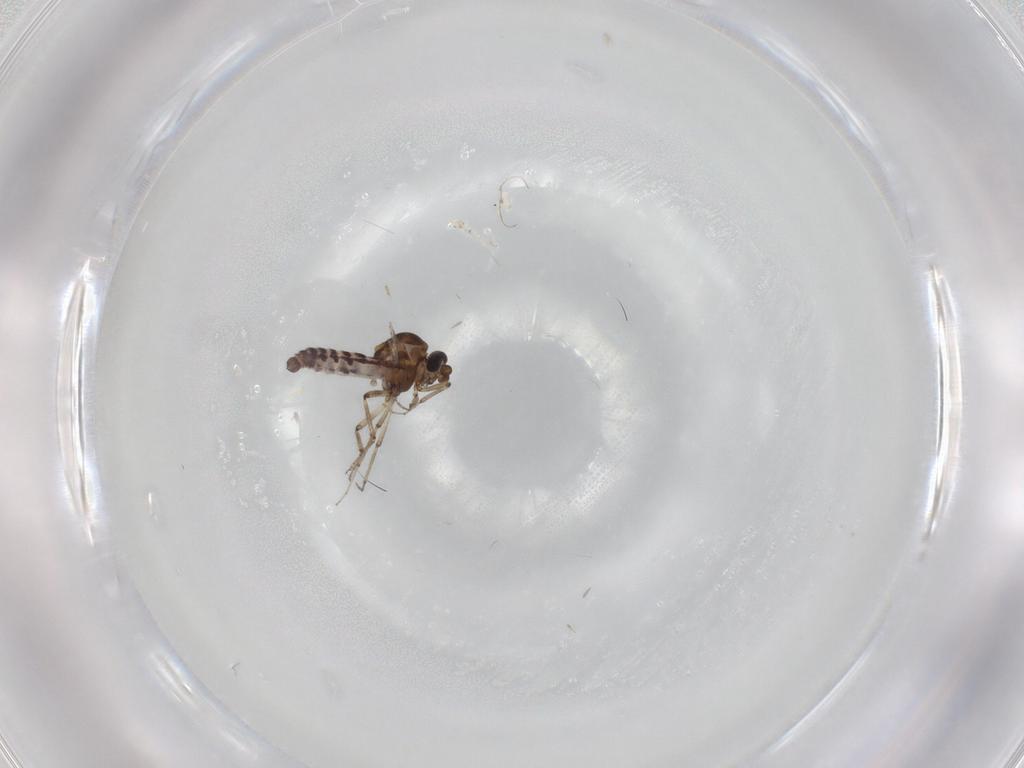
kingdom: Animalia
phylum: Arthropoda
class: Insecta
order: Diptera
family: Ceratopogonidae
